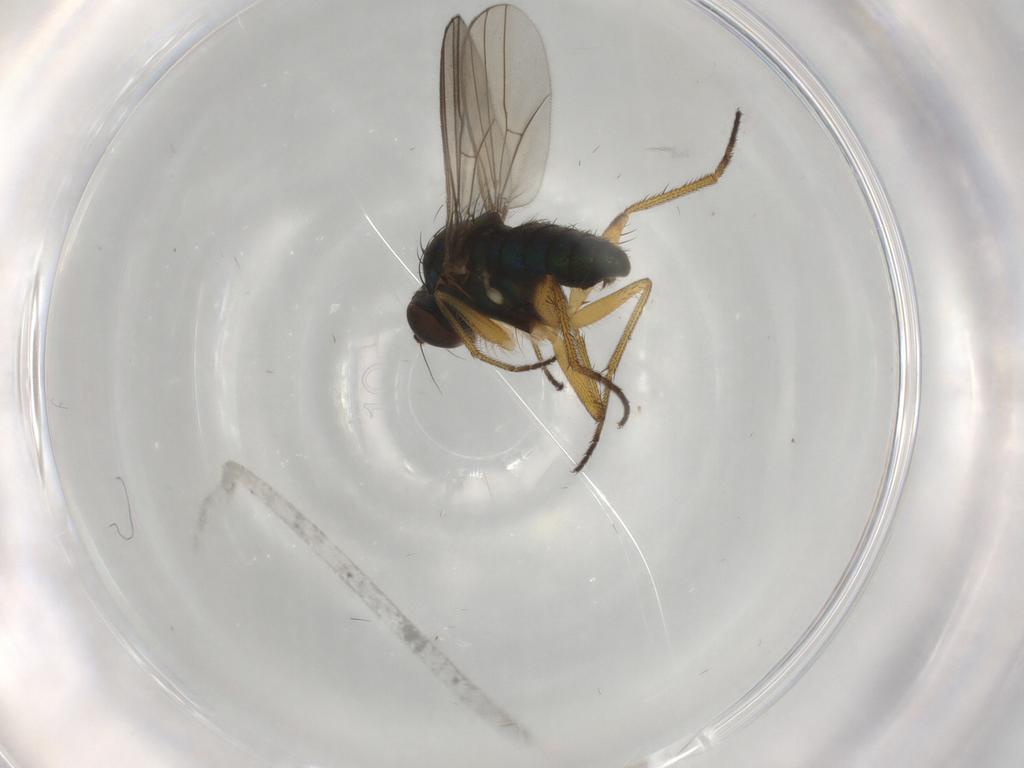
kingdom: Animalia
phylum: Arthropoda
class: Insecta
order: Diptera
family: Dolichopodidae
